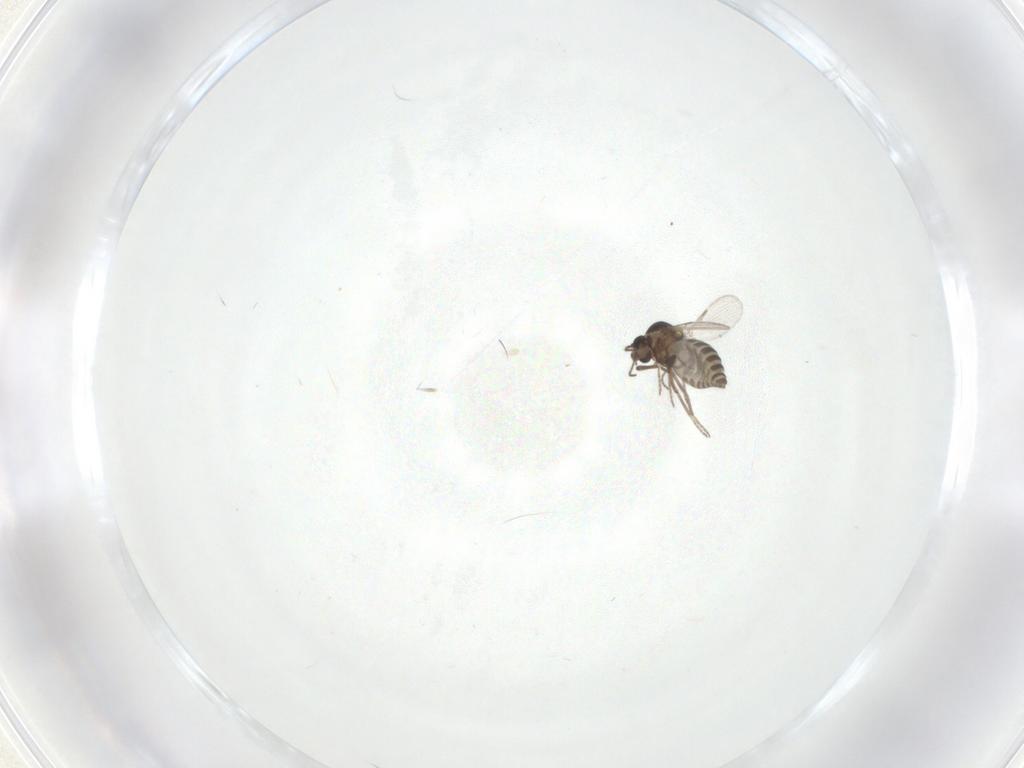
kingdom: Animalia
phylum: Arthropoda
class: Insecta
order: Diptera
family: Ceratopogonidae
